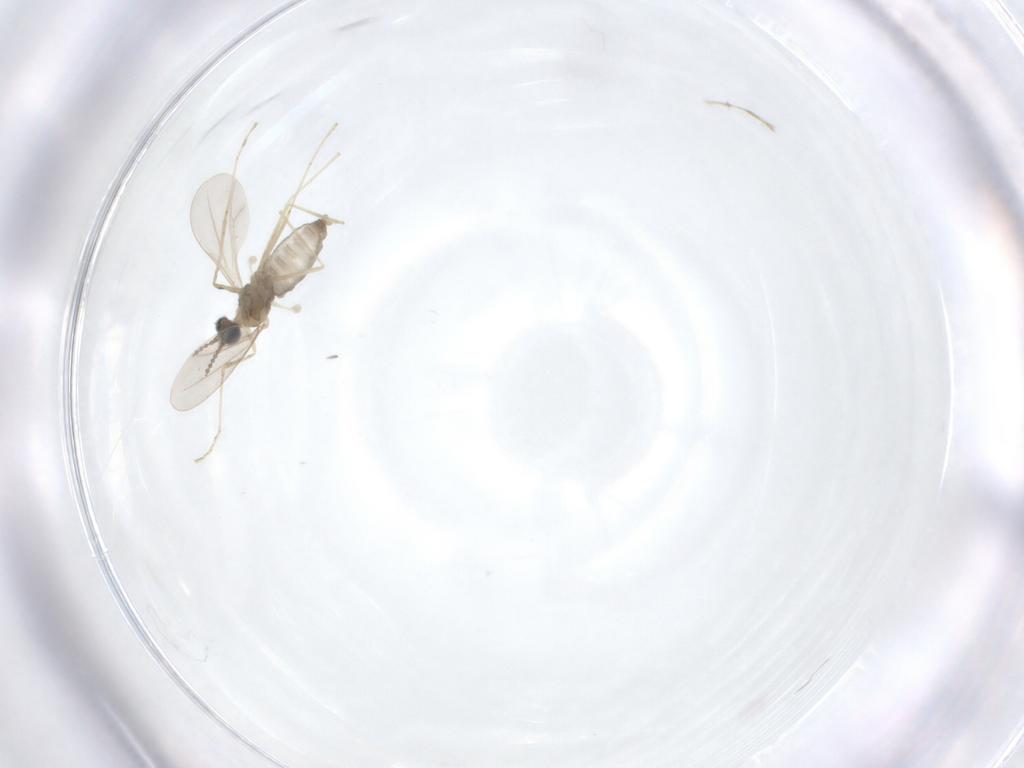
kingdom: Animalia
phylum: Arthropoda
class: Insecta
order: Diptera
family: Cecidomyiidae
